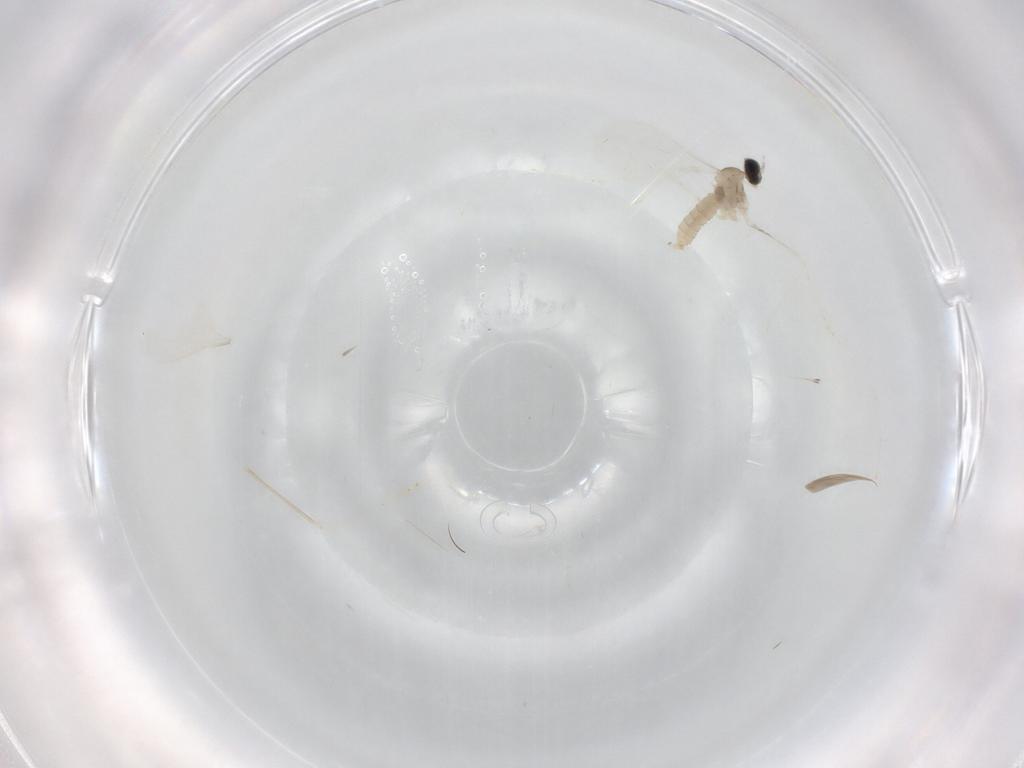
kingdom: Animalia
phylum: Arthropoda
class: Insecta
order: Diptera
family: Cecidomyiidae
